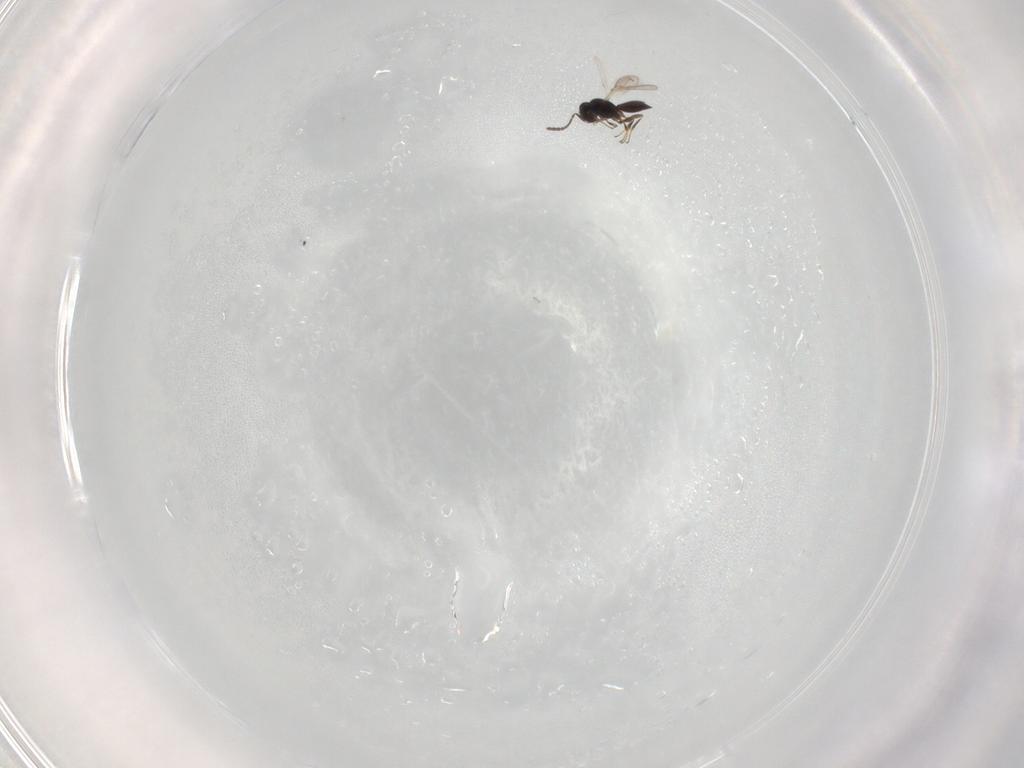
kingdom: Animalia
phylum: Arthropoda
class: Insecta
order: Hymenoptera
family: Scelionidae
